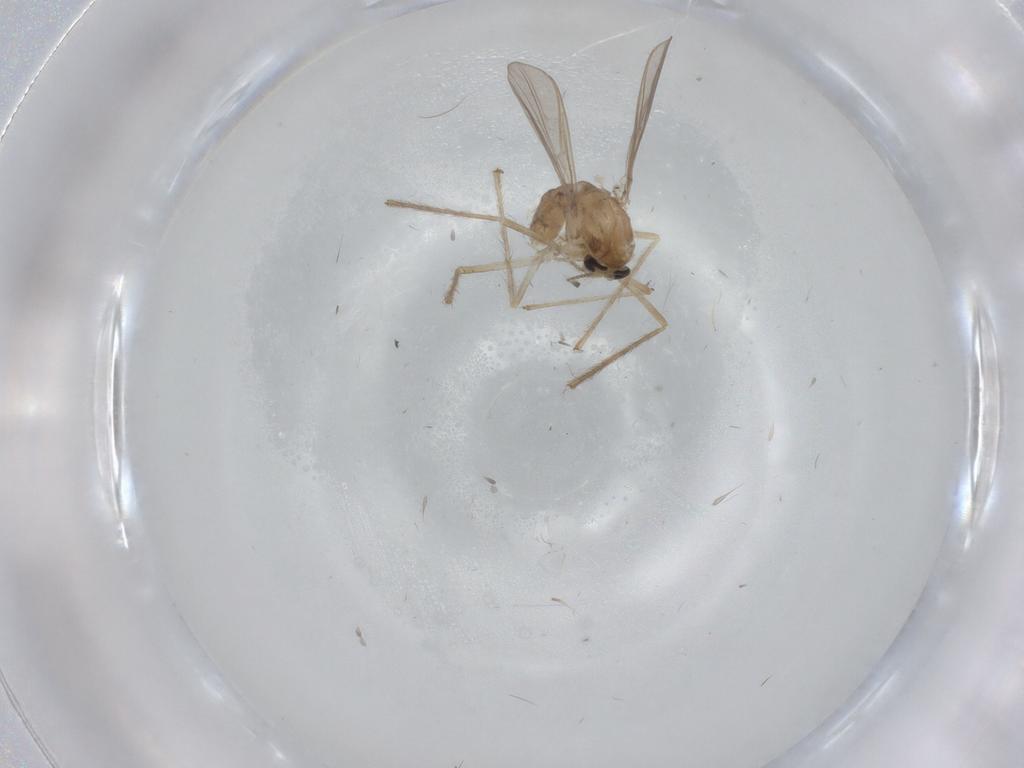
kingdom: Animalia
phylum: Arthropoda
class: Insecta
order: Diptera
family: Chironomidae
